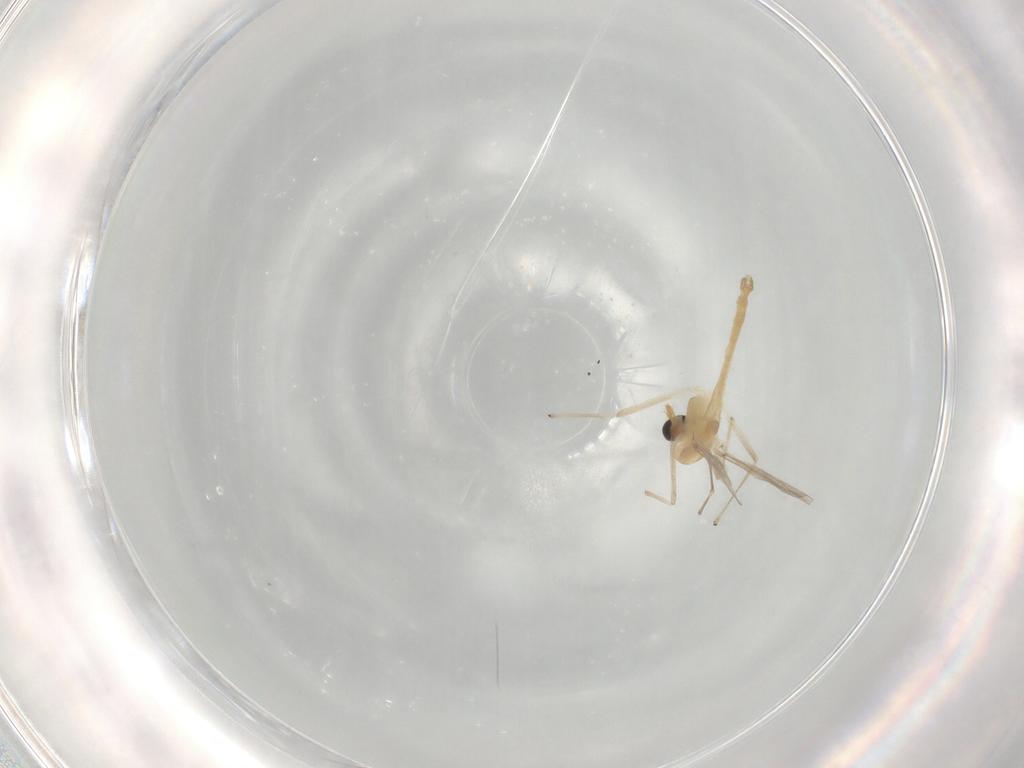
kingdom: Animalia
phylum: Arthropoda
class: Insecta
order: Diptera
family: Chironomidae
